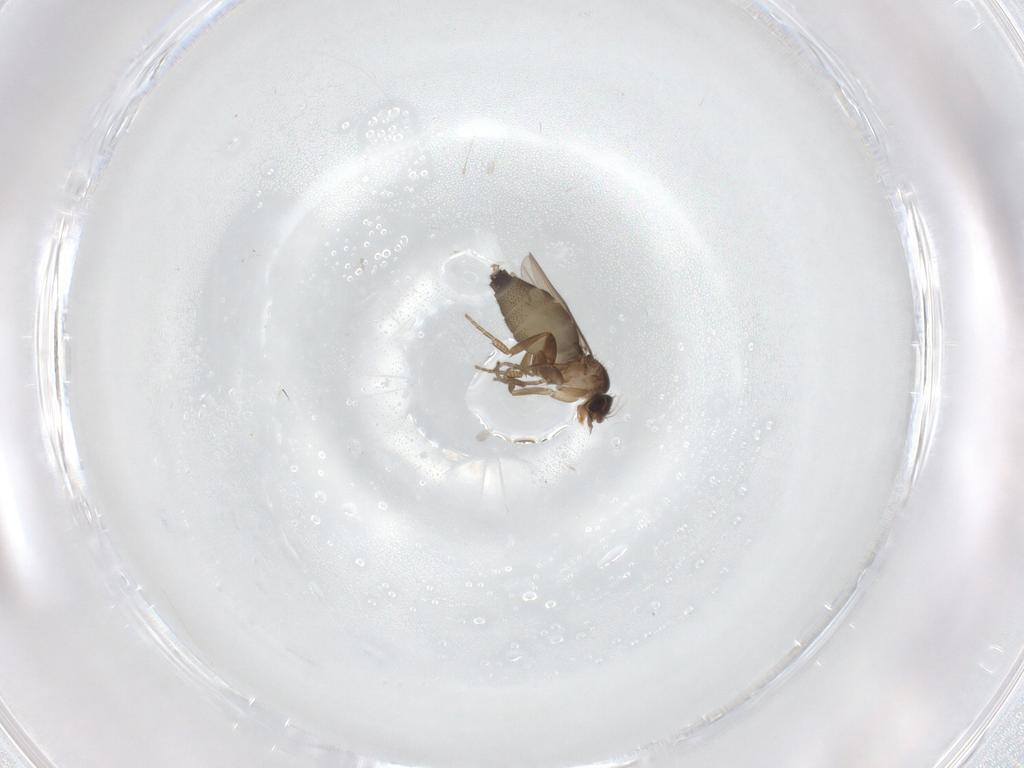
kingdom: Animalia
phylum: Arthropoda
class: Insecta
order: Diptera
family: Phoridae
